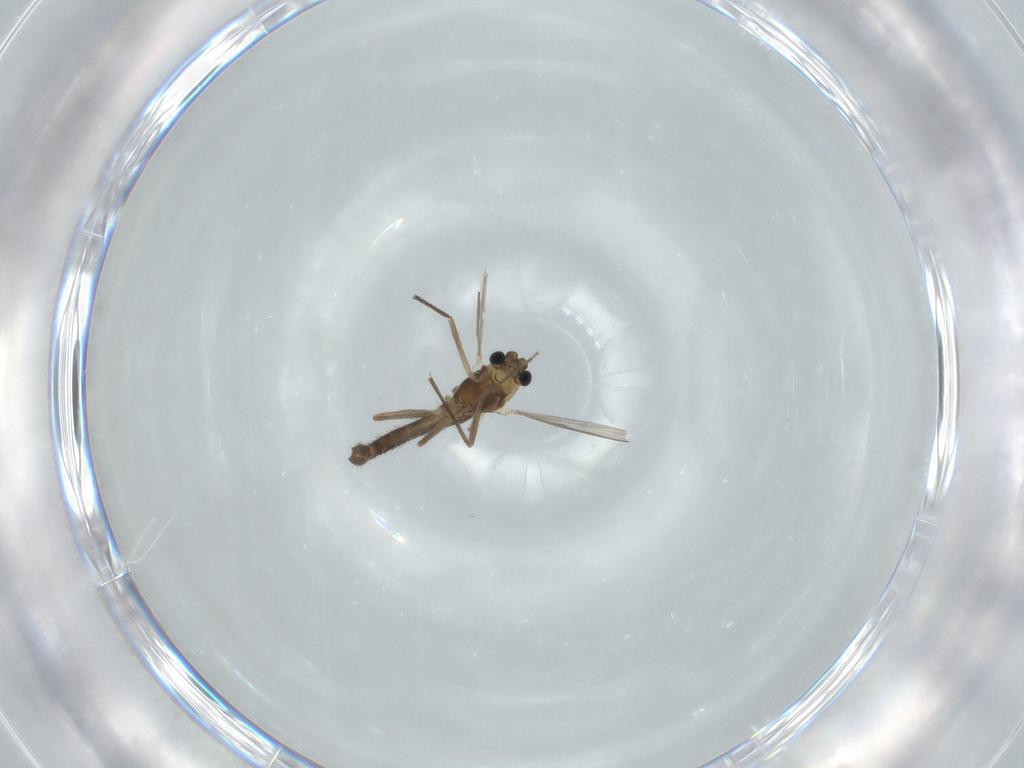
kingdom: Animalia
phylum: Arthropoda
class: Insecta
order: Diptera
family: Chironomidae
